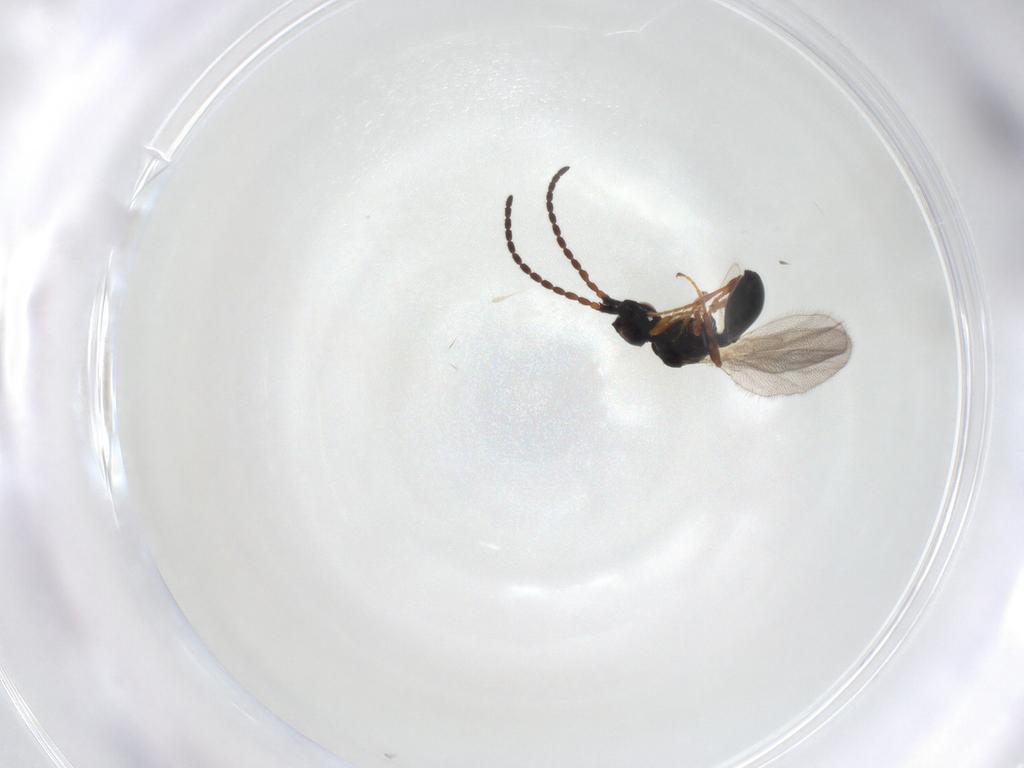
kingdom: Animalia
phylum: Arthropoda
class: Insecta
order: Hymenoptera
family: Diapriidae
